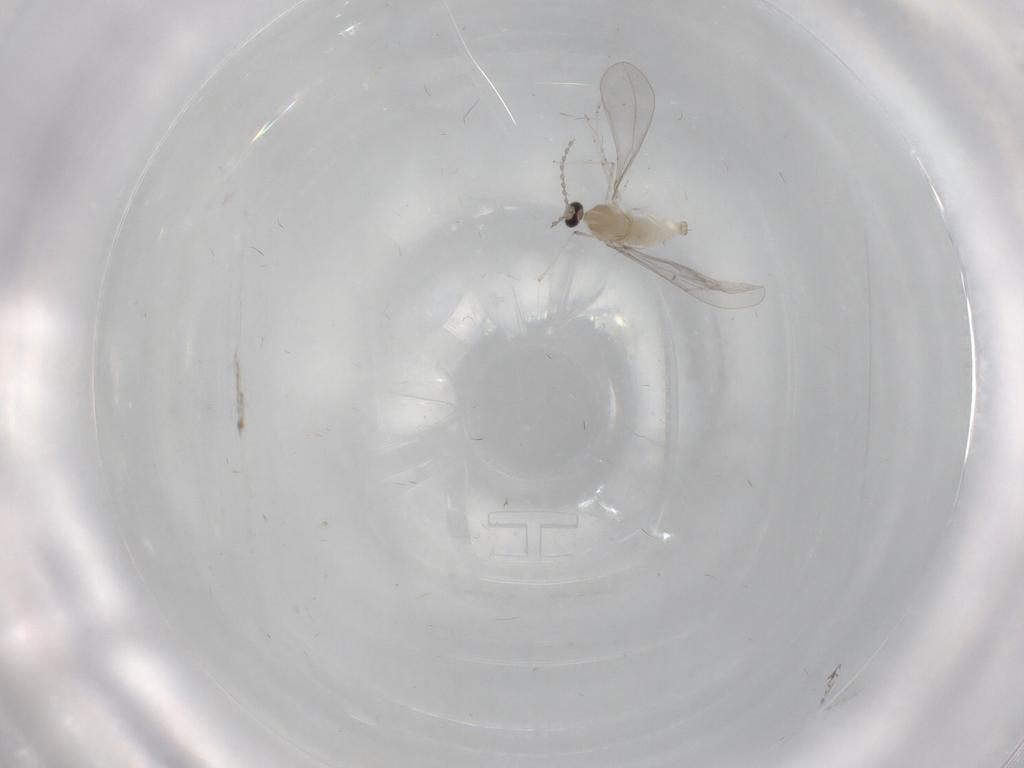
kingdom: Animalia
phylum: Arthropoda
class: Insecta
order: Diptera
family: Cecidomyiidae
